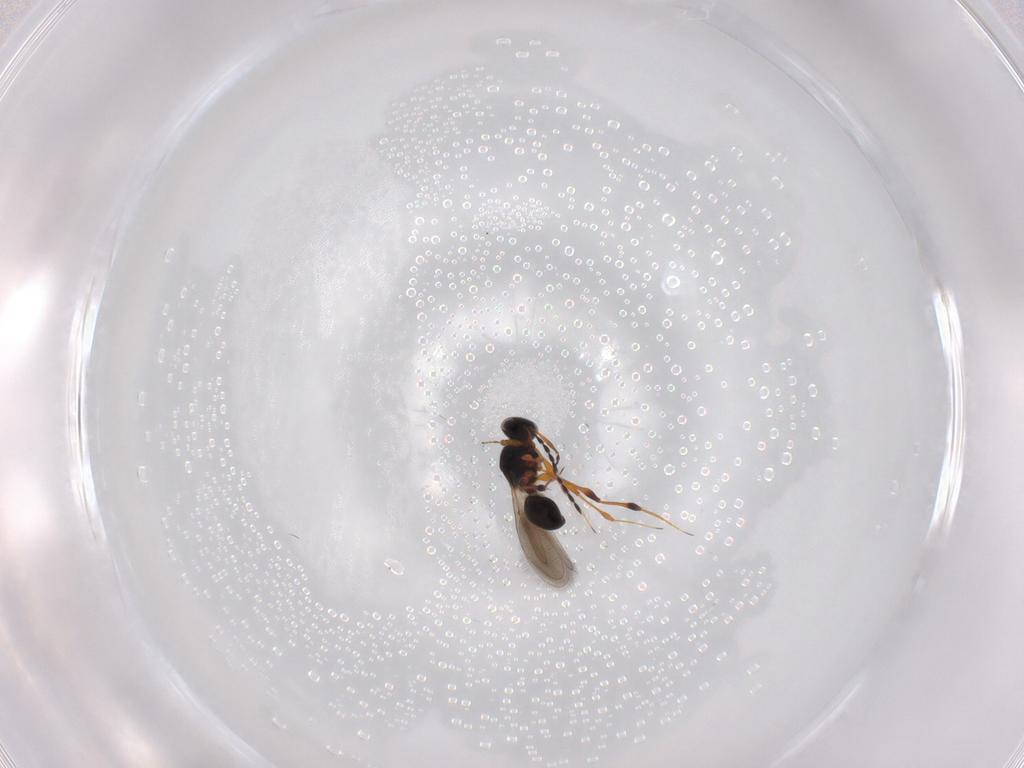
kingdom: Animalia
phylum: Arthropoda
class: Insecta
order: Hymenoptera
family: Platygastridae
